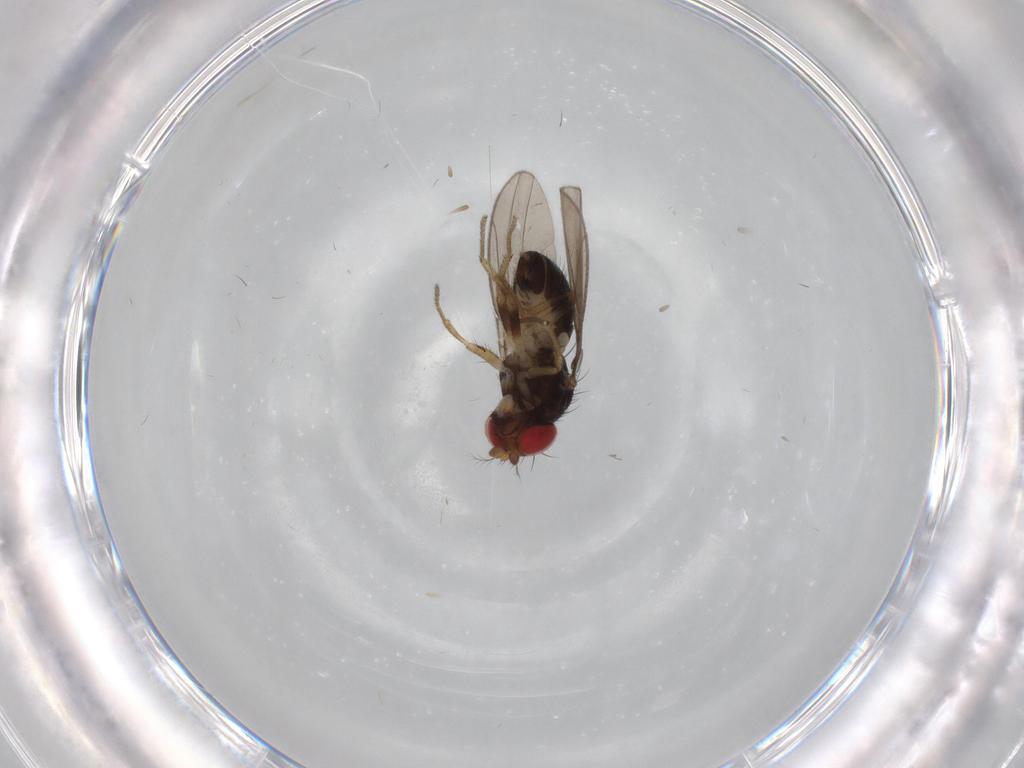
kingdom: Animalia
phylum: Arthropoda
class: Insecta
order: Diptera
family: Drosophilidae
